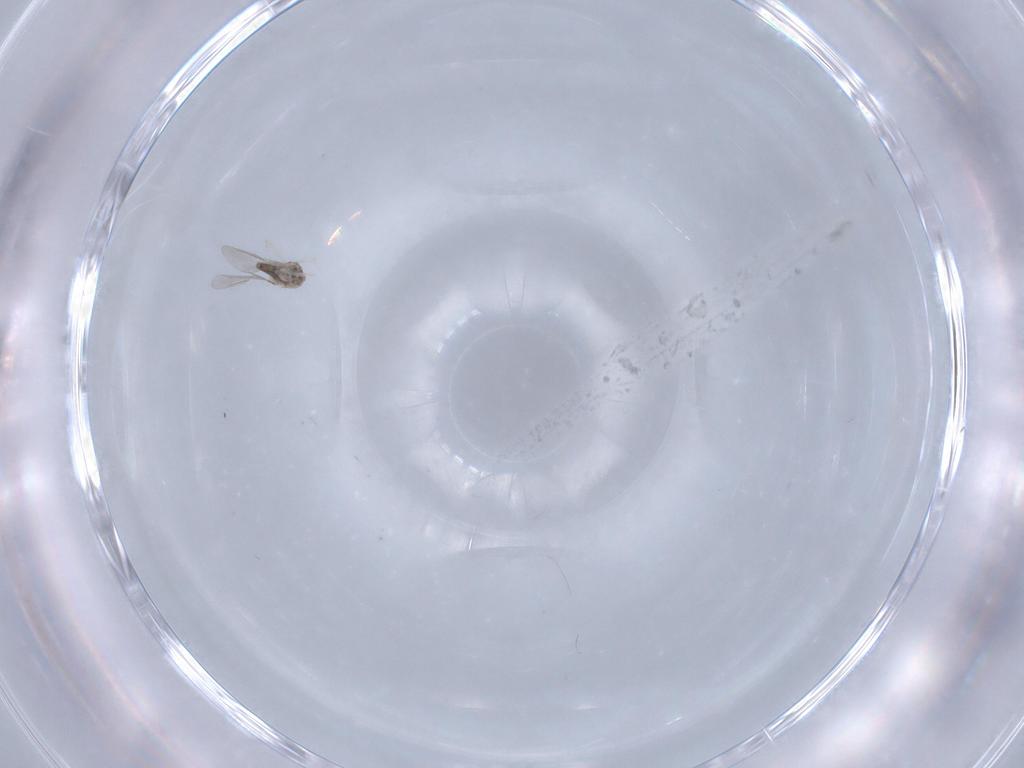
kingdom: Animalia
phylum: Arthropoda
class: Insecta
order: Diptera
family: Cecidomyiidae
